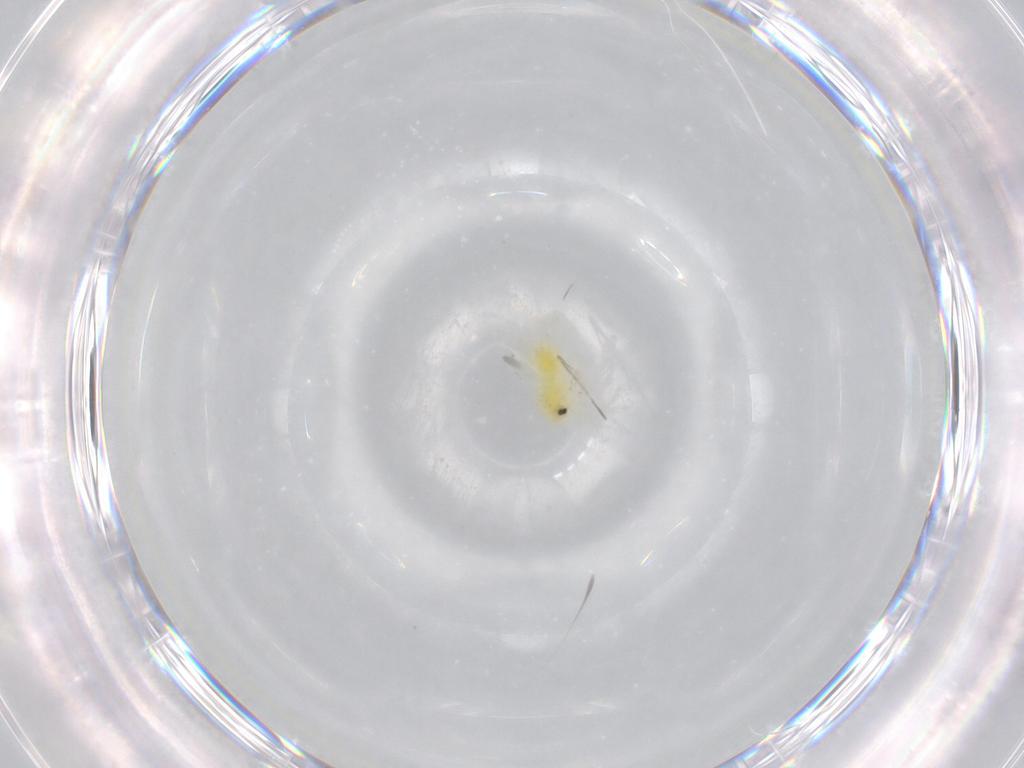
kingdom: Animalia
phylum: Arthropoda
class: Insecta
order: Hemiptera
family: Aleyrodidae
